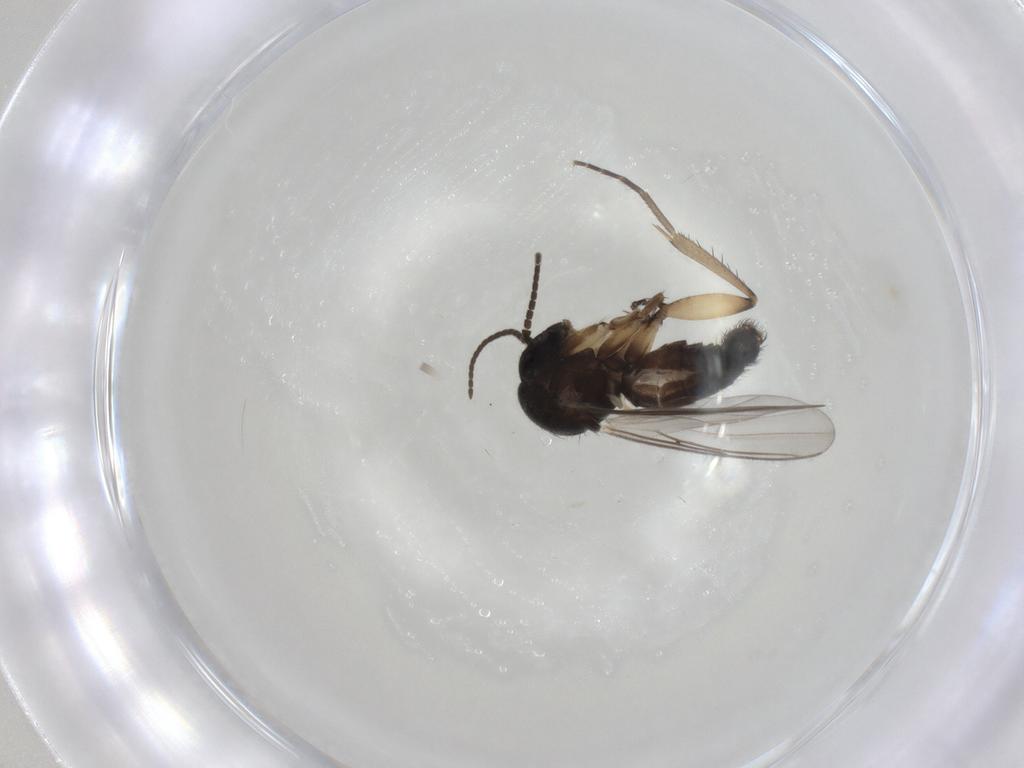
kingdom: Animalia
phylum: Arthropoda
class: Insecta
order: Diptera
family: Mycetophilidae
